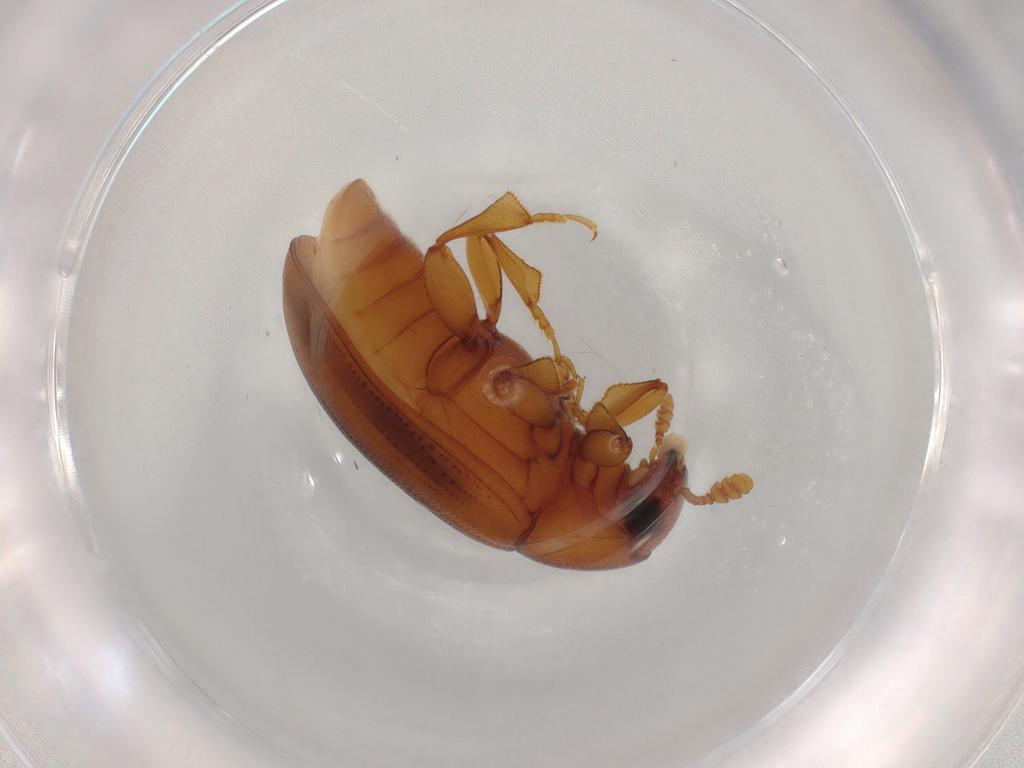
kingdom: Animalia
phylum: Arthropoda
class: Insecta
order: Coleoptera
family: Erotylidae
